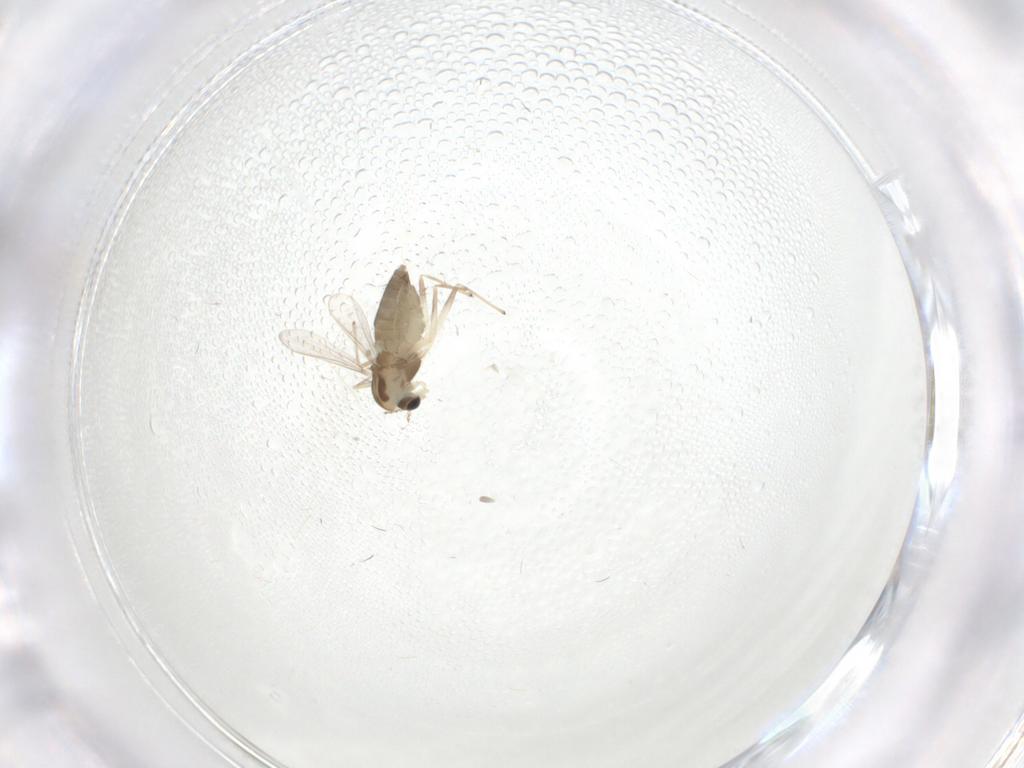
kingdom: Animalia
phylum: Arthropoda
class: Insecta
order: Diptera
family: Chironomidae
